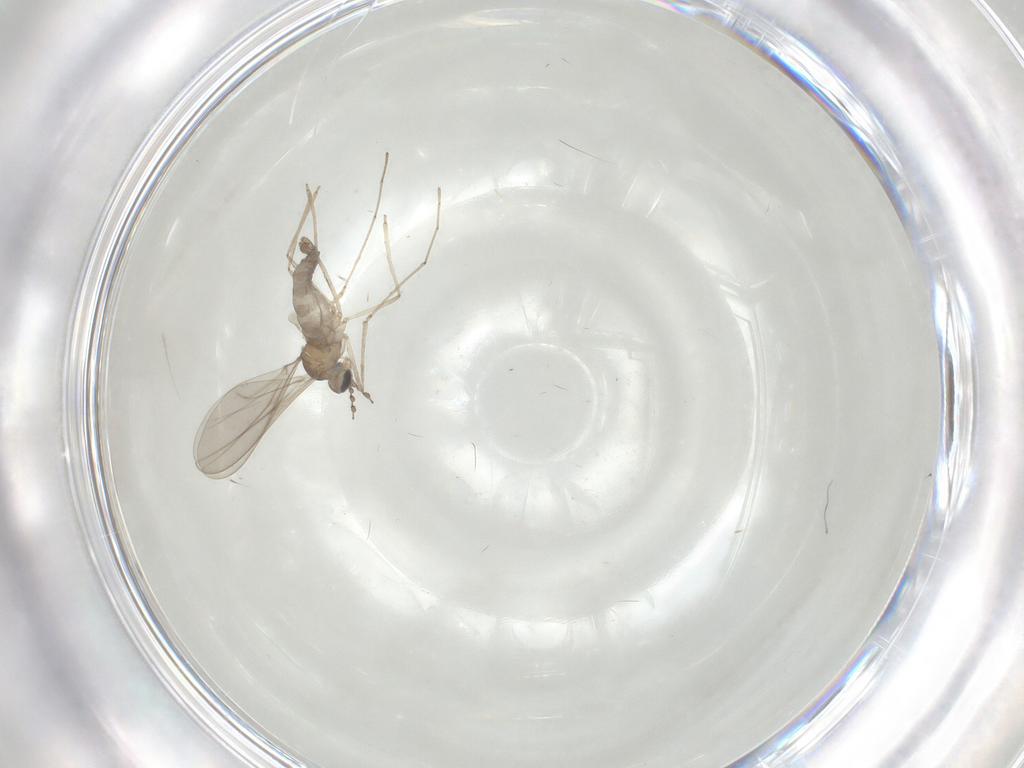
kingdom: Animalia
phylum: Arthropoda
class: Insecta
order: Diptera
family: Cecidomyiidae
